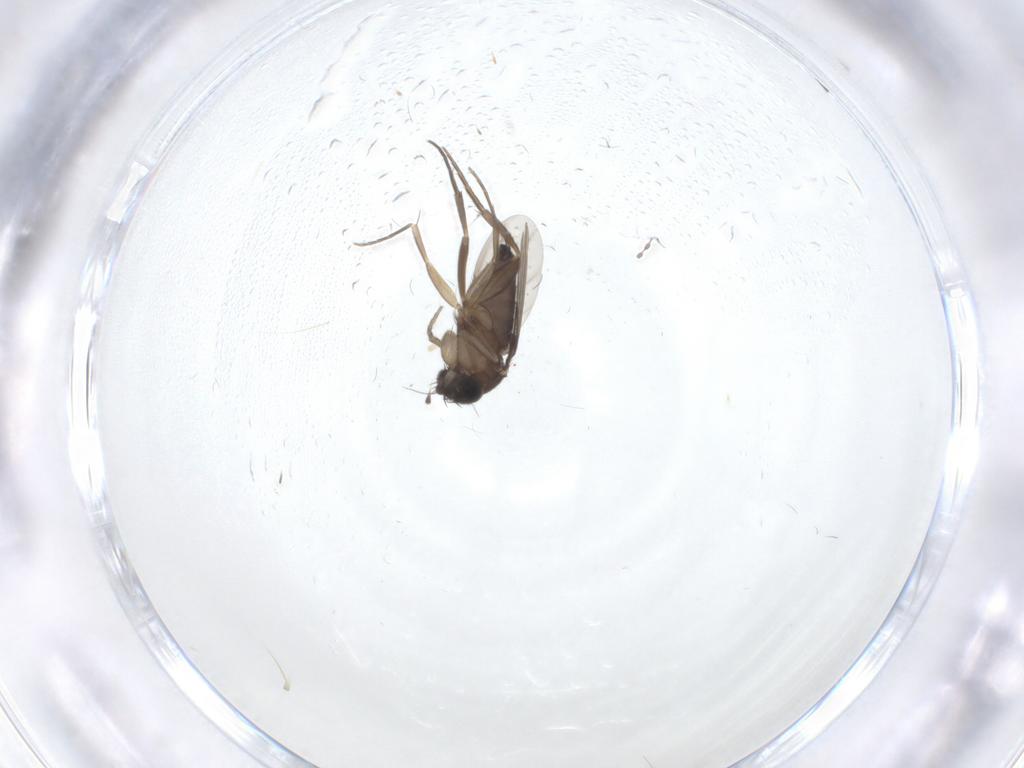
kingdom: Animalia
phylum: Arthropoda
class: Insecta
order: Diptera
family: Phoridae
